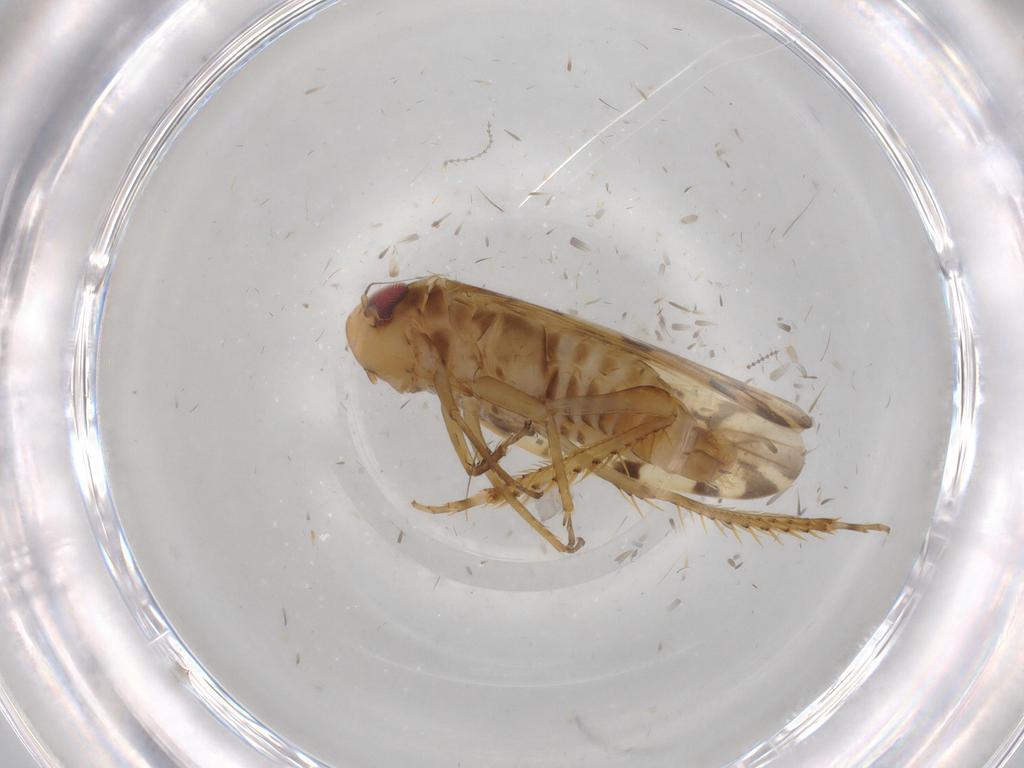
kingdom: Animalia
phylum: Arthropoda
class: Insecta
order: Hemiptera
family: Cicadellidae
